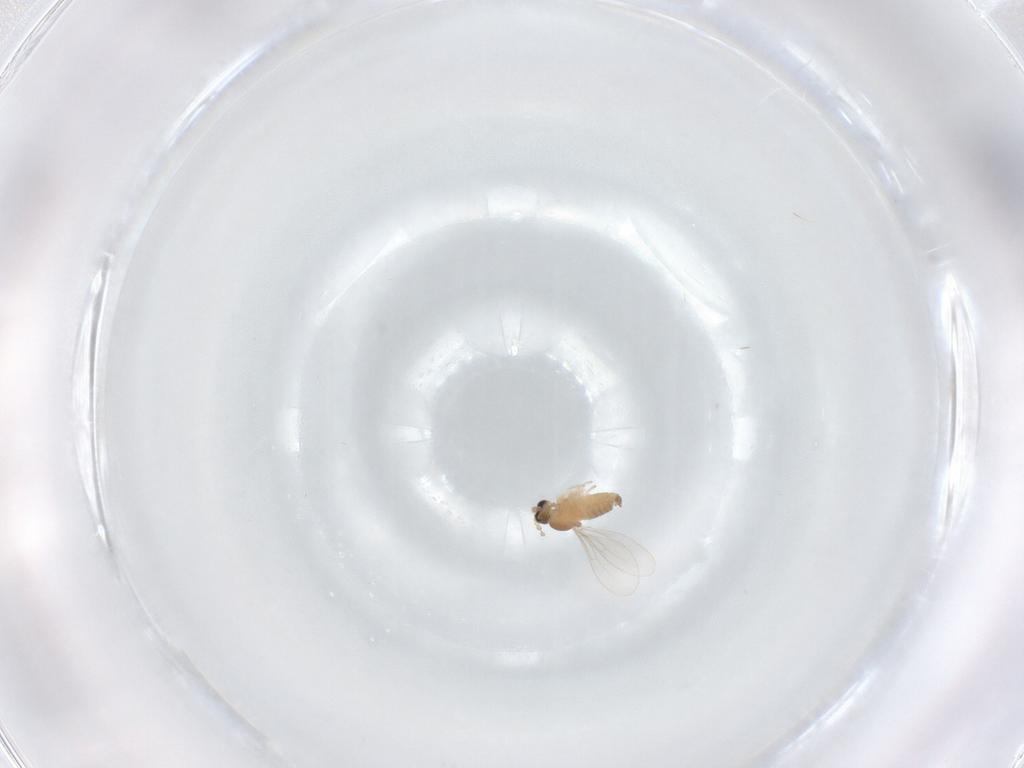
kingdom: Animalia
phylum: Arthropoda
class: Insecta
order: Diptera
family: Cecidomyiidae
